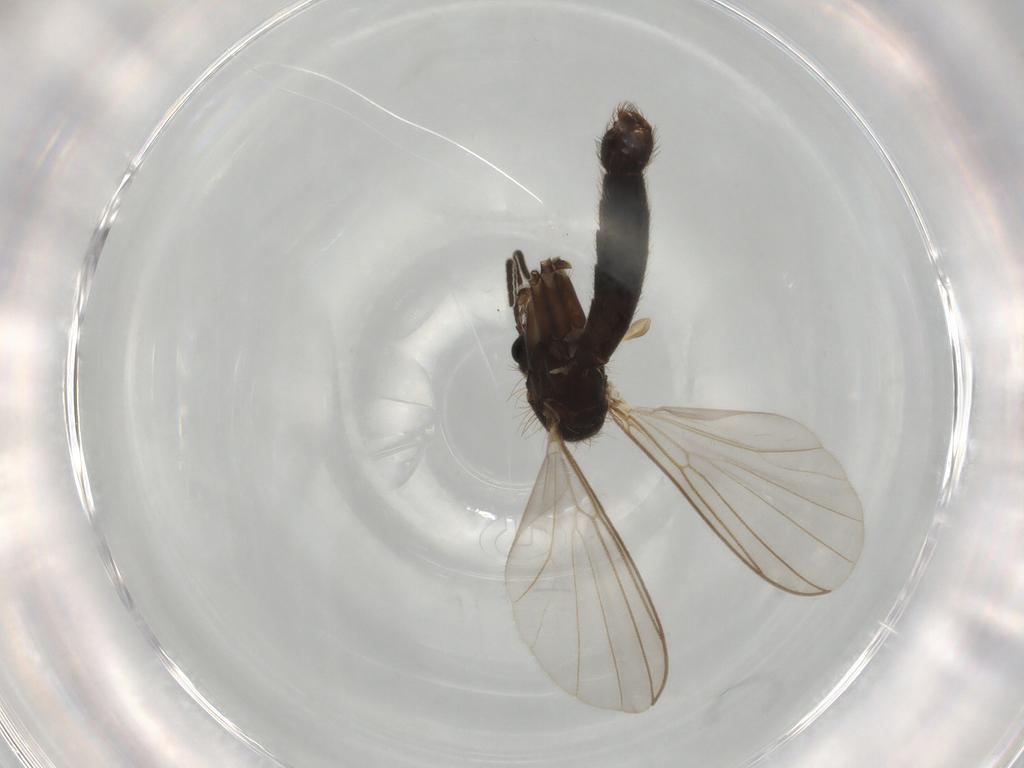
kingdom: Animalia
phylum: Arthropoda
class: Insecta
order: Diptera
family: Mycetophilidae
